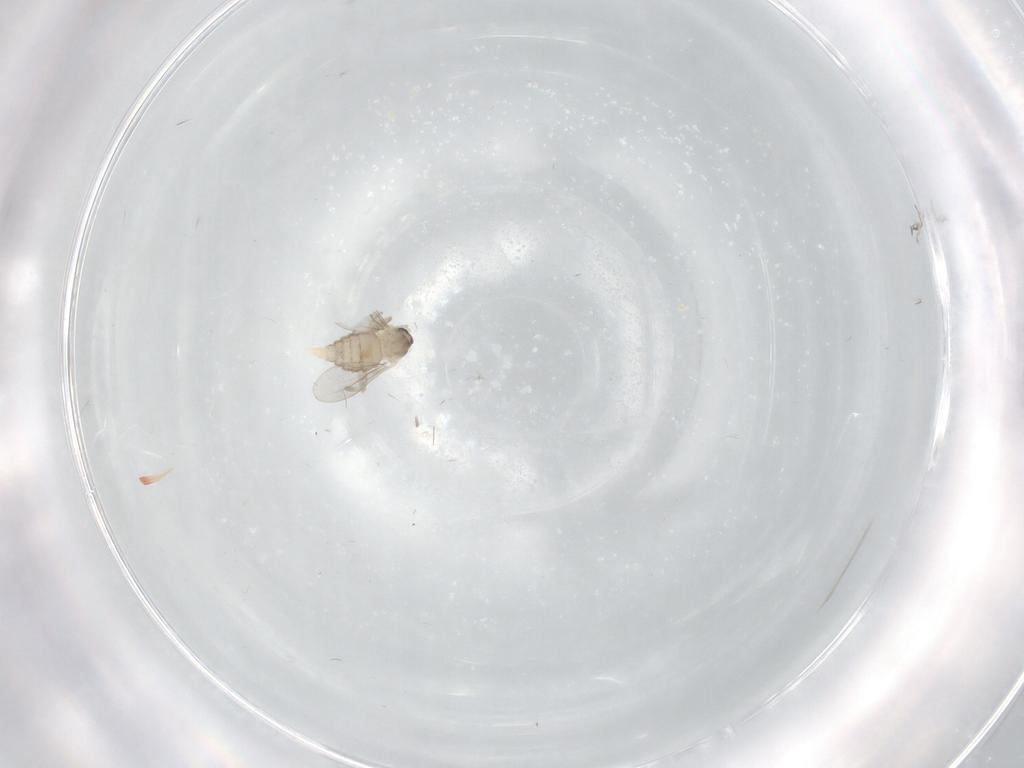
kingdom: Animalia
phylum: Arthropoda
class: Insecta
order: Diptera
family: Cecidomyiidae
